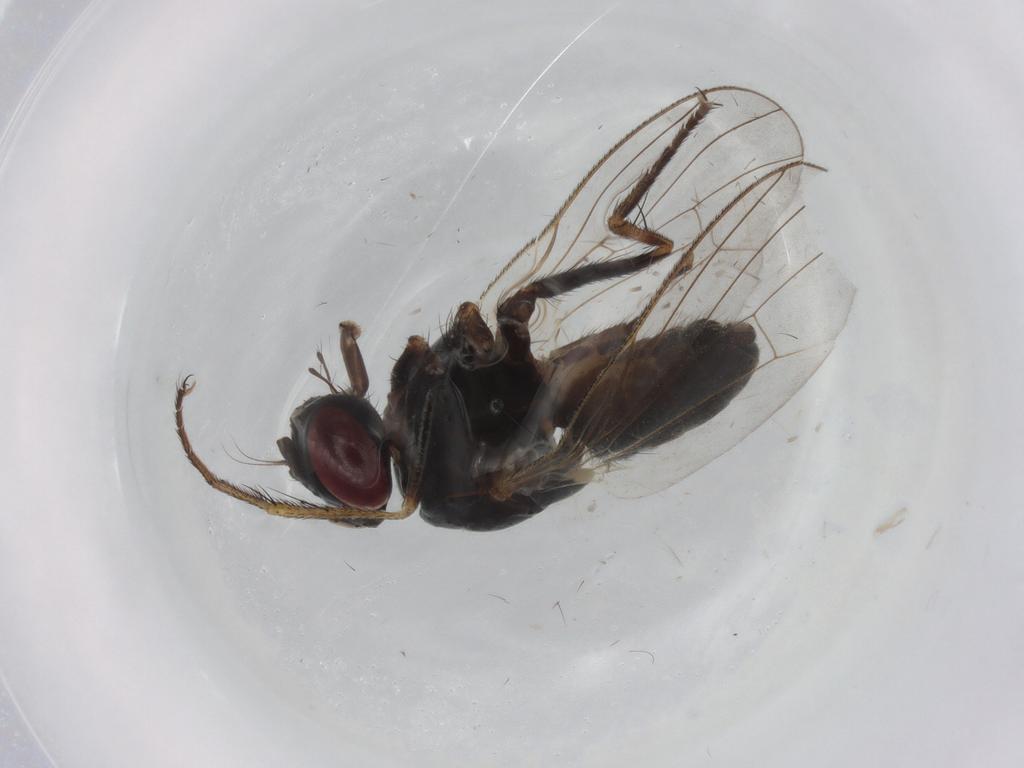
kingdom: Animalia
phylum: Arthropoda
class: Insecta
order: Diptera
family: Muscidae
